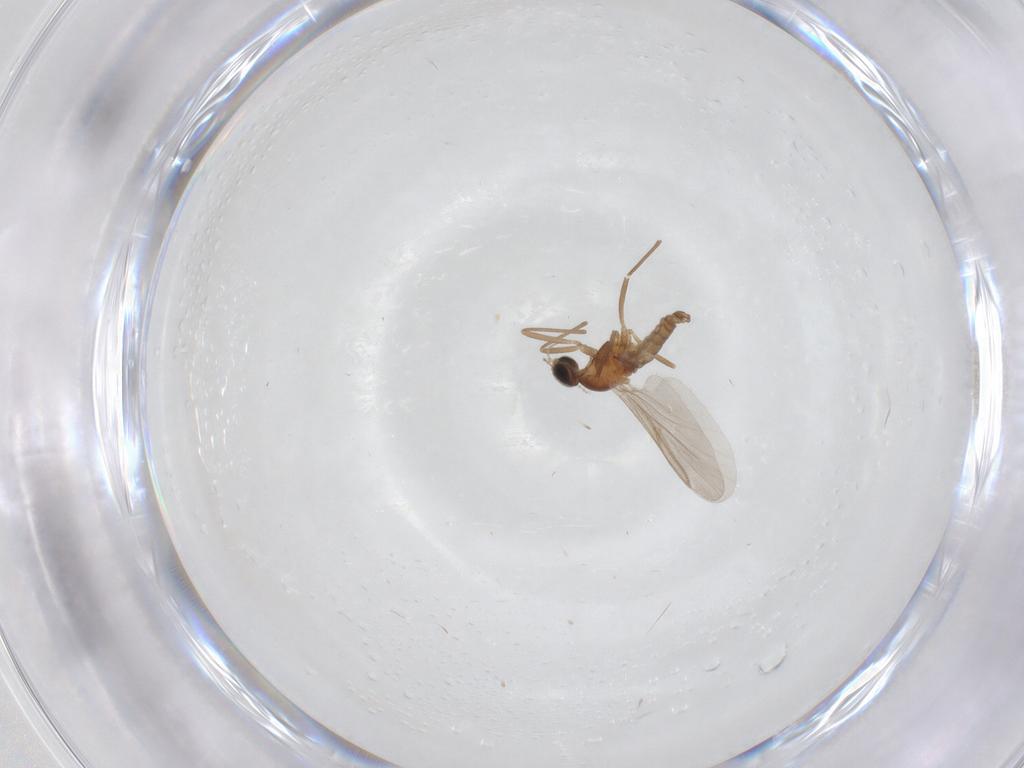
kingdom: Animalia
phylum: Arthropoda
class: Insecta
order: Diptera
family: Cecidomyiidae
